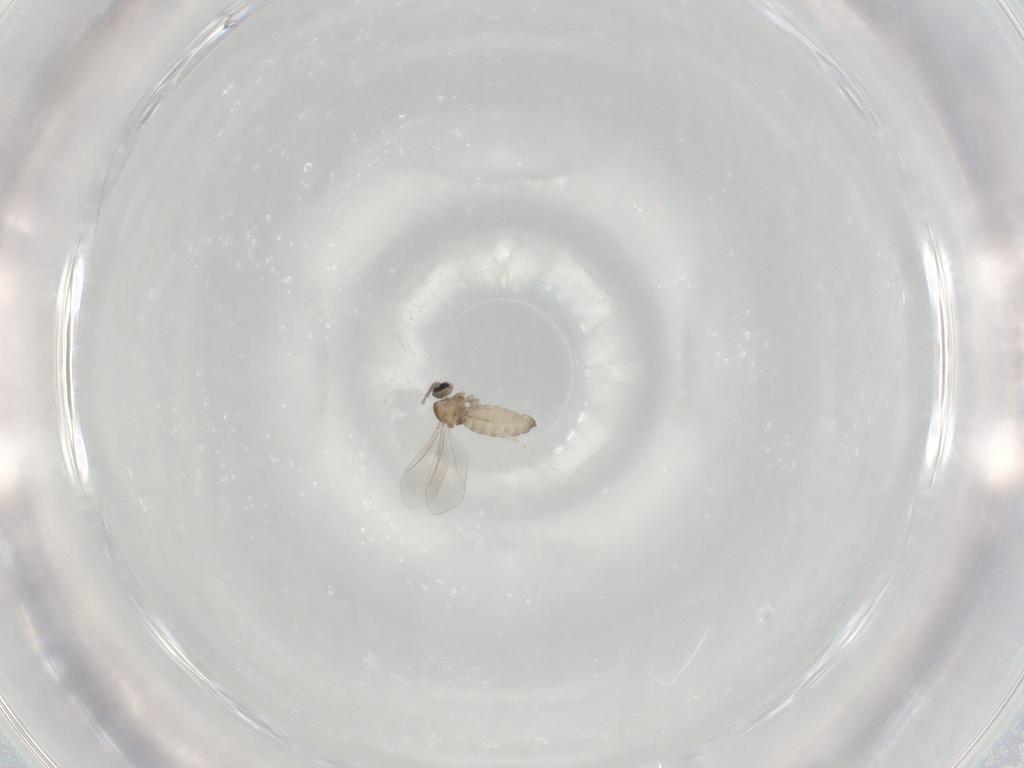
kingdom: Animalia
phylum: Arthropoda
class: Insecta
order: Diptera
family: Cecidomyiidae
